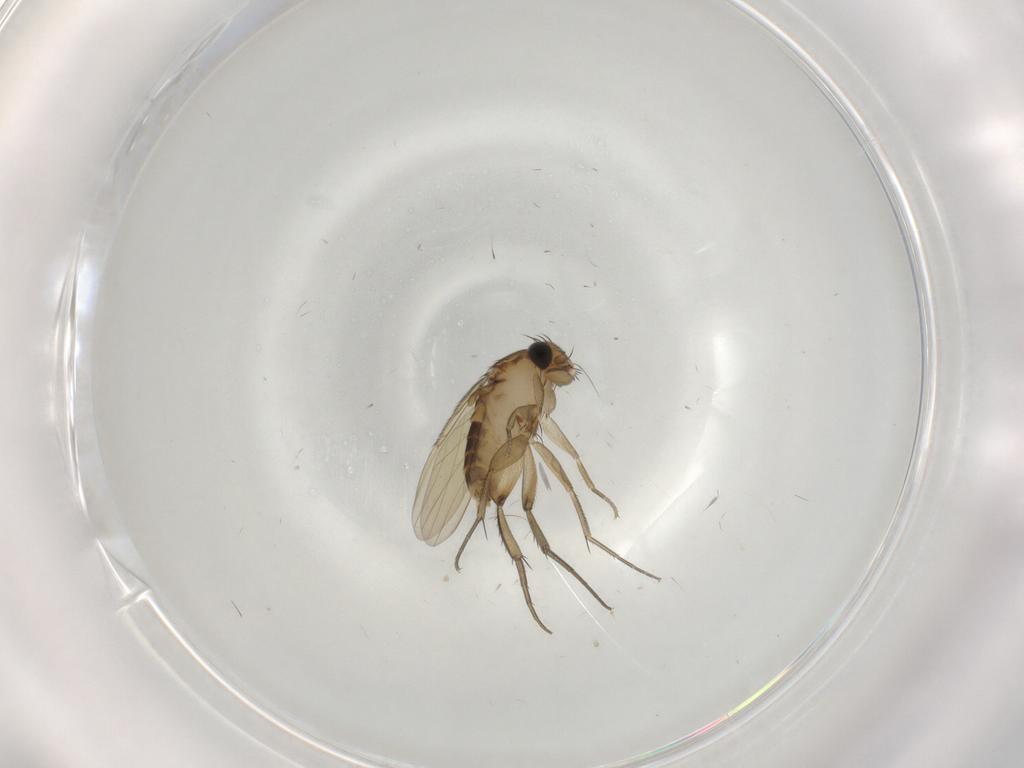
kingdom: Animalia
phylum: Arthropoda
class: Insecta
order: Diptera
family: Phoridae
